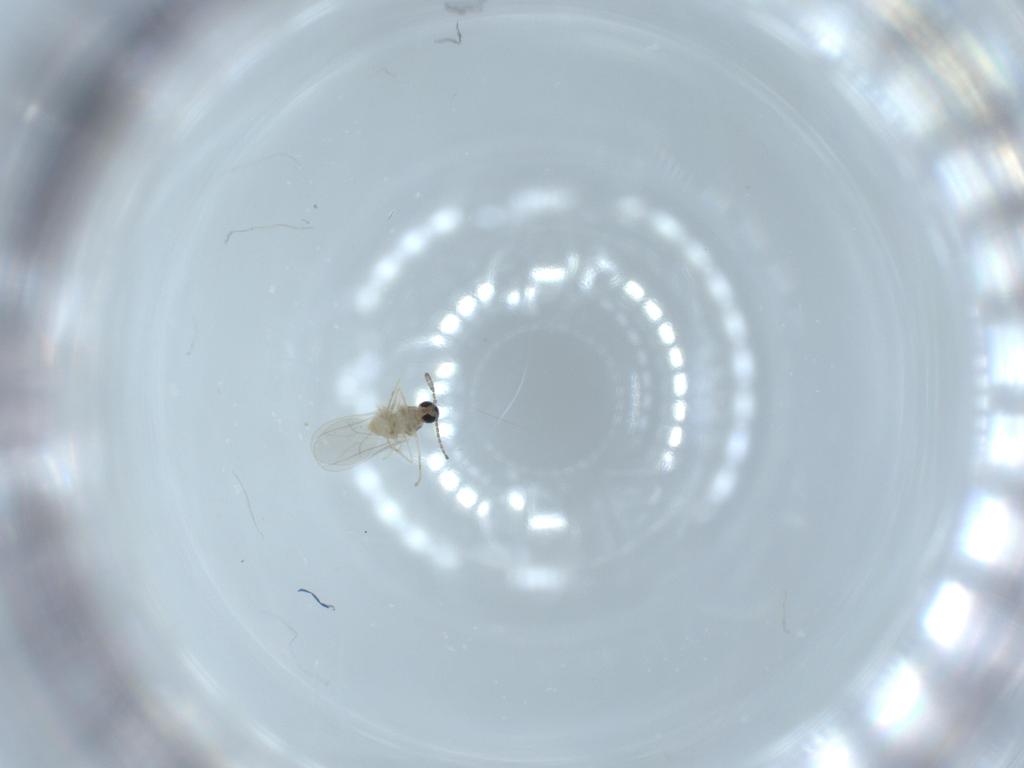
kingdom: Animalia
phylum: Arthropoda
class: Insecta
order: Diptera
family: Cecidomyiidae
